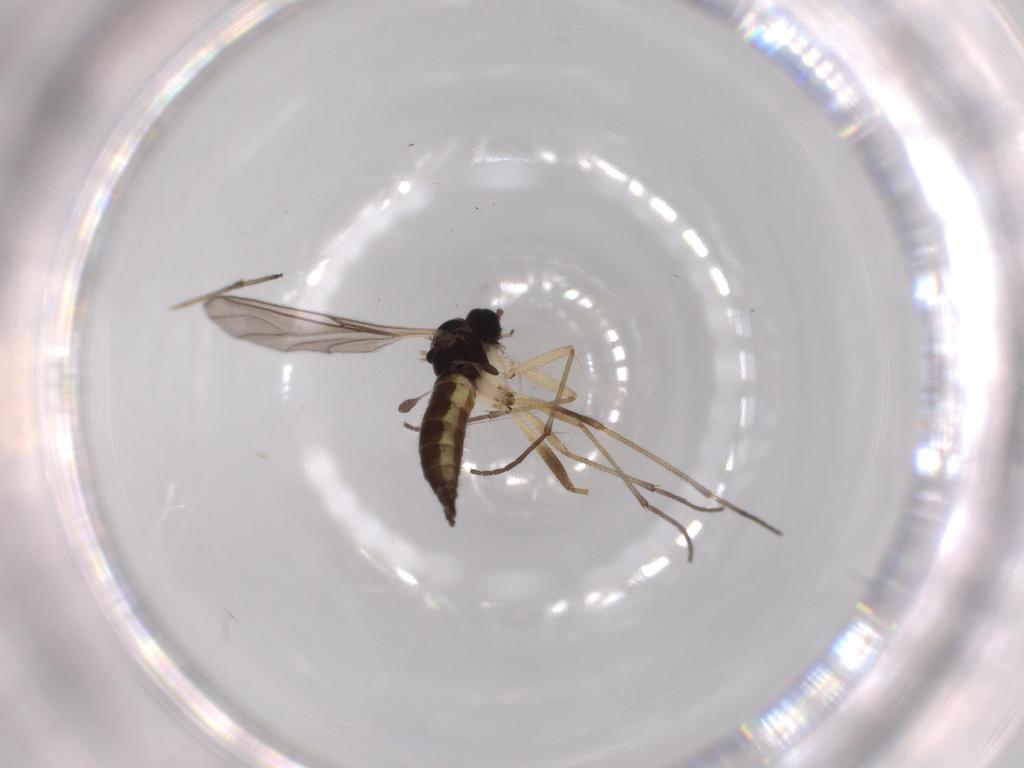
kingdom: Animalia
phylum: Arthropoda
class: Insecta
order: Diptera
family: Sciaridae
